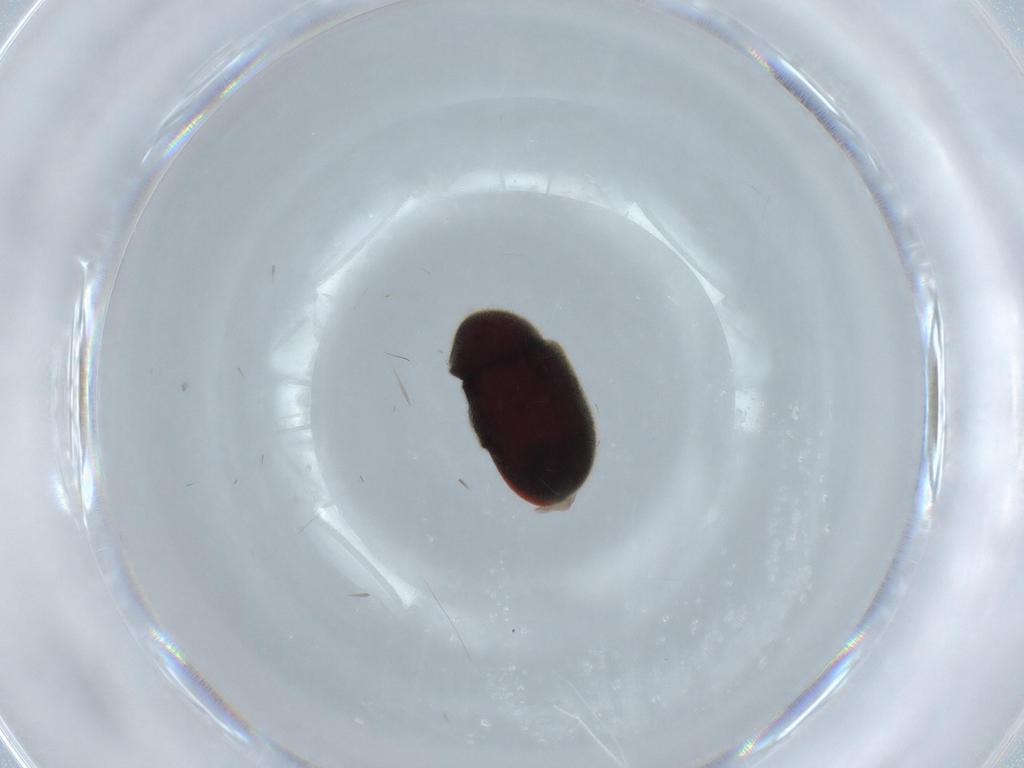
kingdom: Animalia
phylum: Arthropoda
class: Insecta
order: Coleoptera
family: Ptinidae
